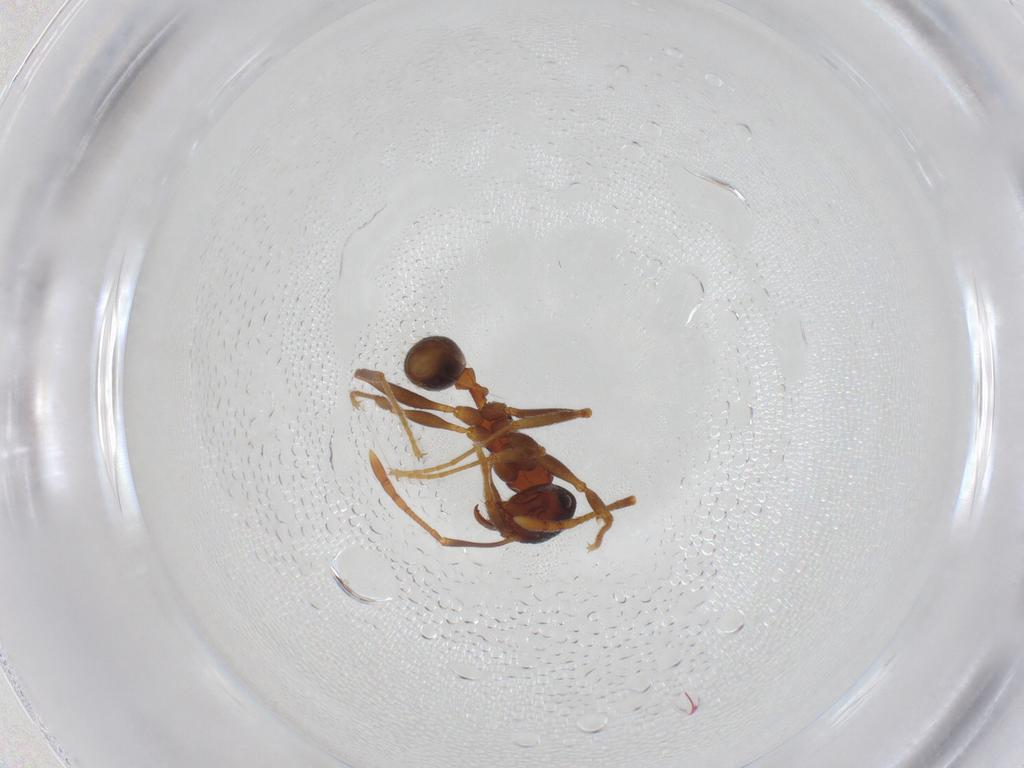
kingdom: Animalia
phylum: Arthropoda
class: Insecta
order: Hymenoptera
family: Formicidae
